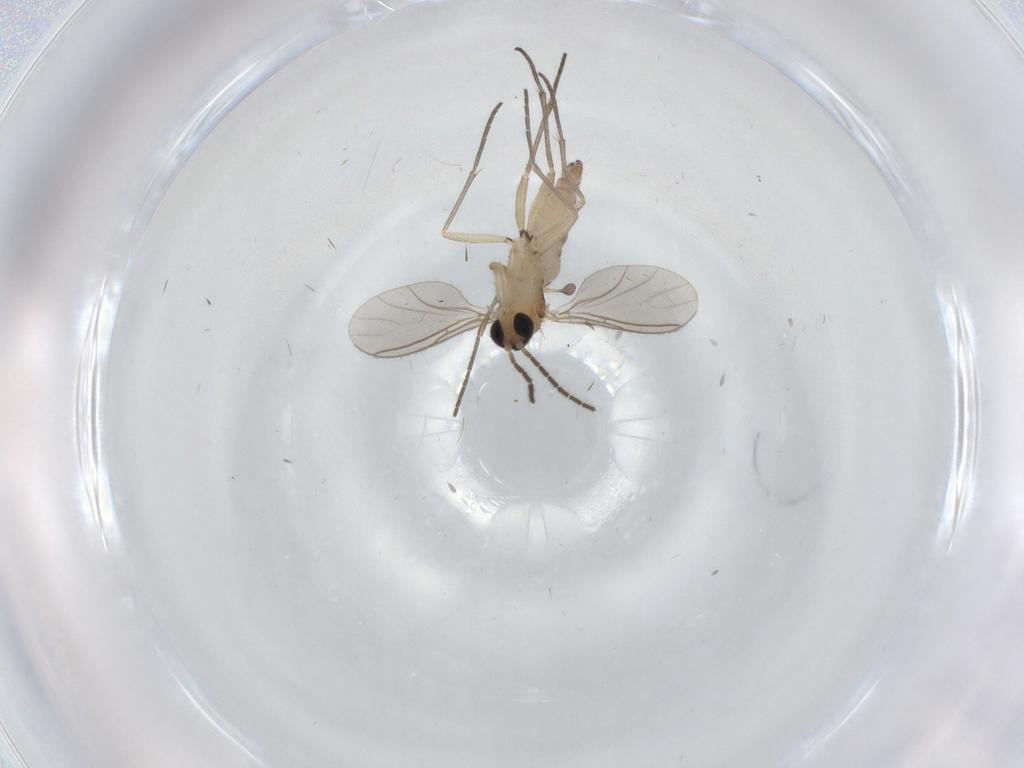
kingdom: Animalia
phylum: Arthropoda
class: Insecta
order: Diptera
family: Sciaridae
